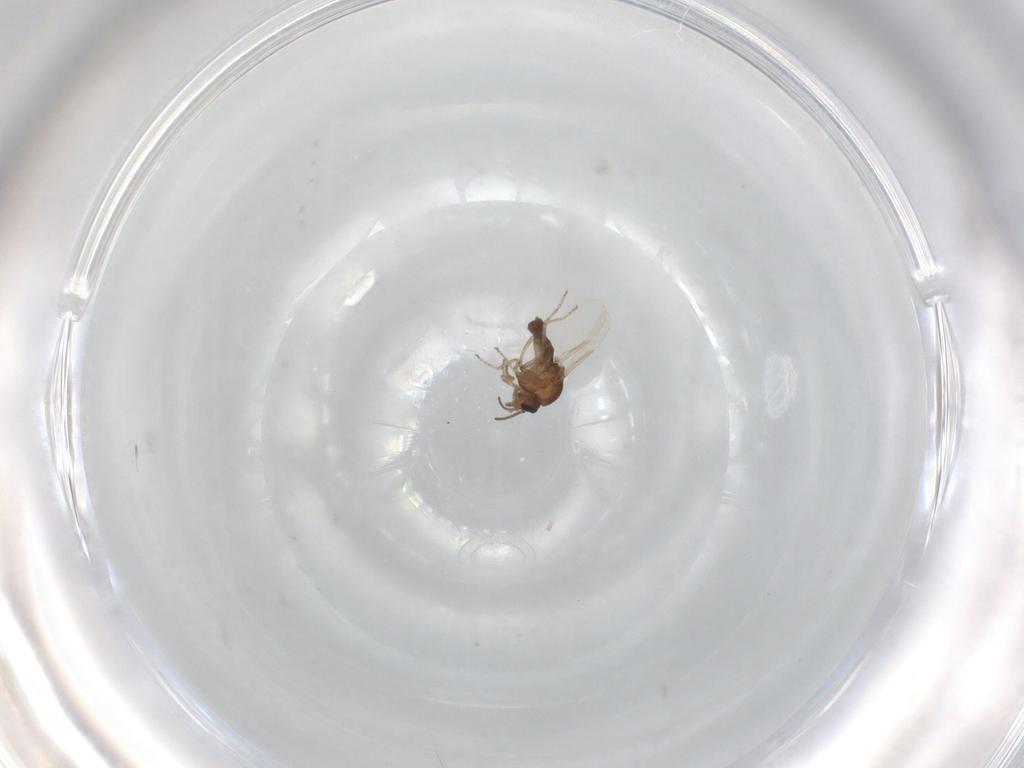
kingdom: Animalia
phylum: Arthropoda
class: Insecta
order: Diptera
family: Ceratopogonidae
